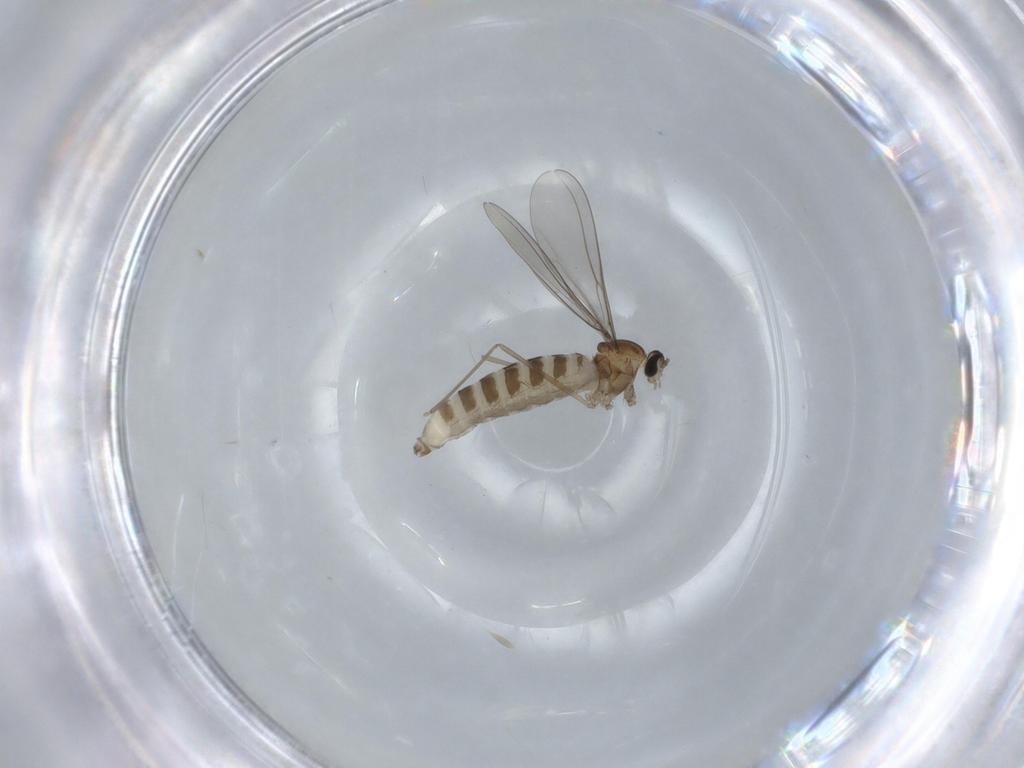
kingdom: Animalia
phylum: Arthropoda
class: Insecta
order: Diptera
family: Cecidomyiidae
